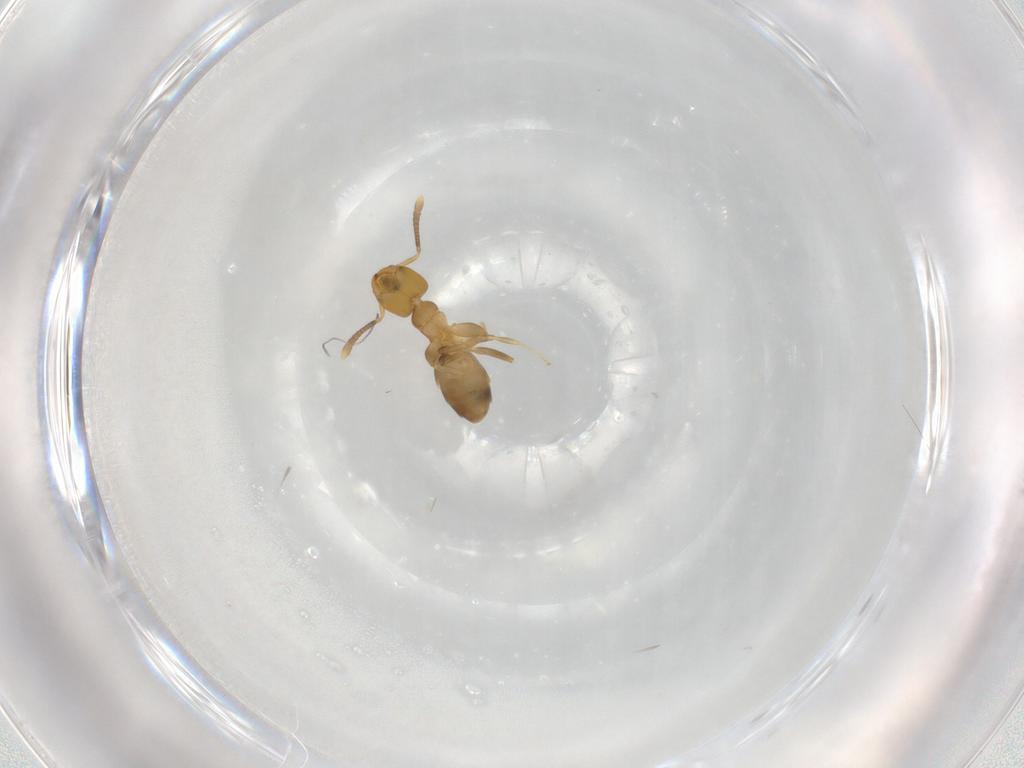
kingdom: Animalia
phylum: Arthropoda
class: Insecta
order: Hymenoptera
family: Formicidae
